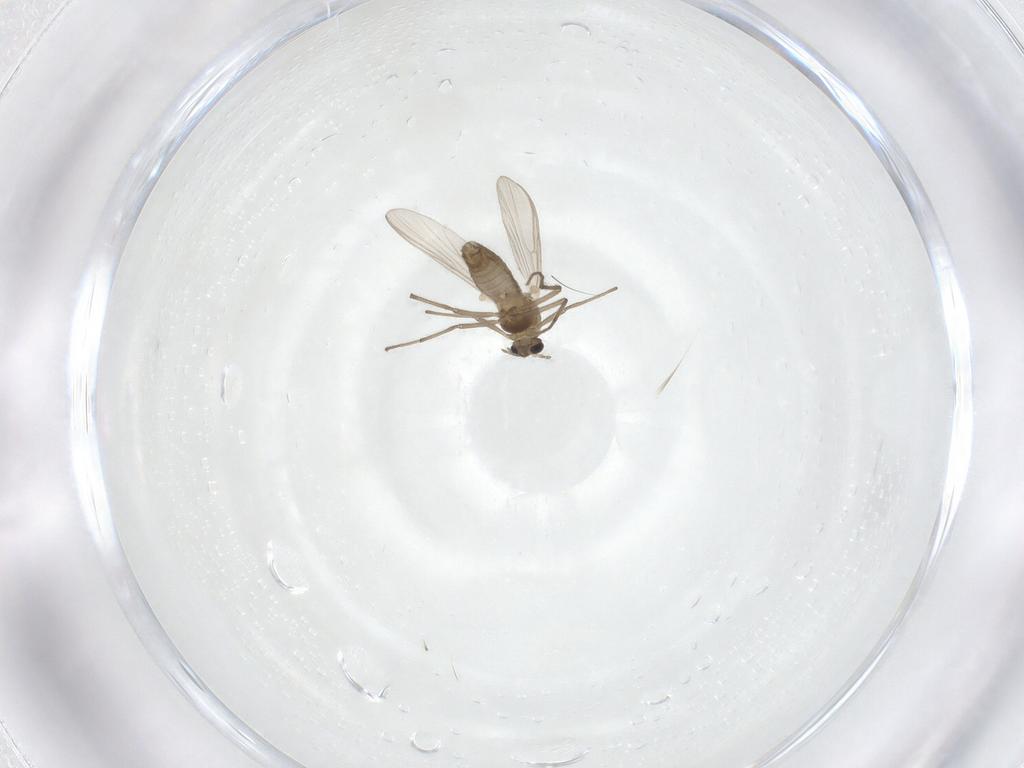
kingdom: Animalia
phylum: Arthropoda
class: Insecta
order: Diptera
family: Chironomidae
